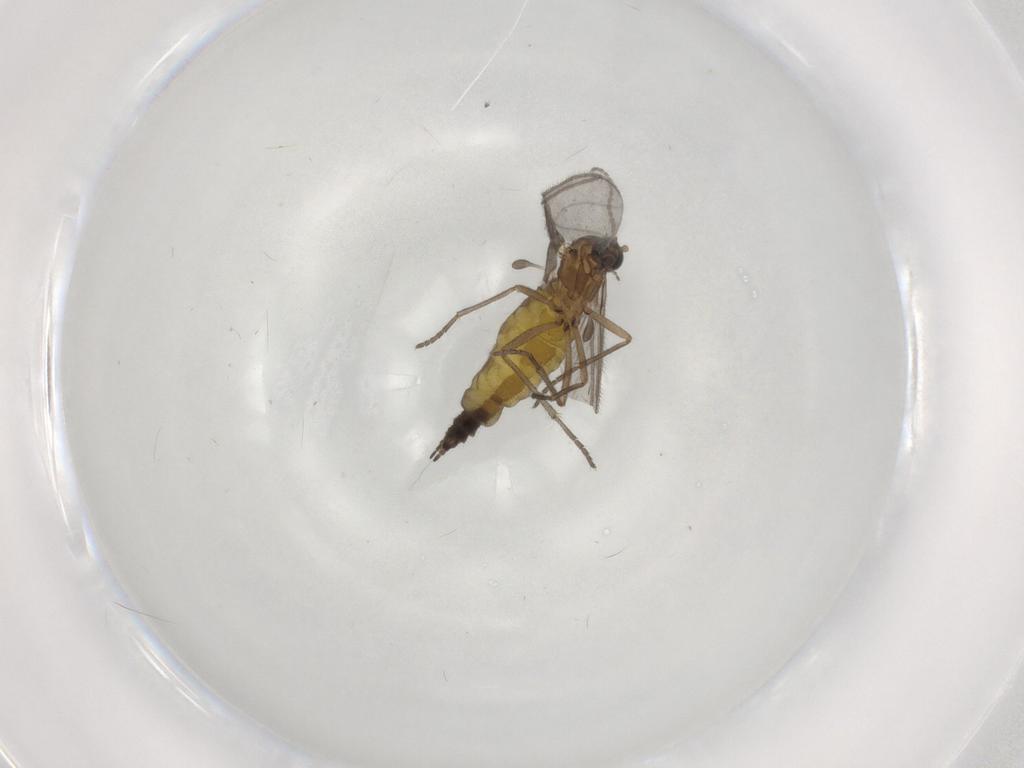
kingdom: Animalia
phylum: Arthropoda
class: Insecta
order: Diptera
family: Sciaridae
